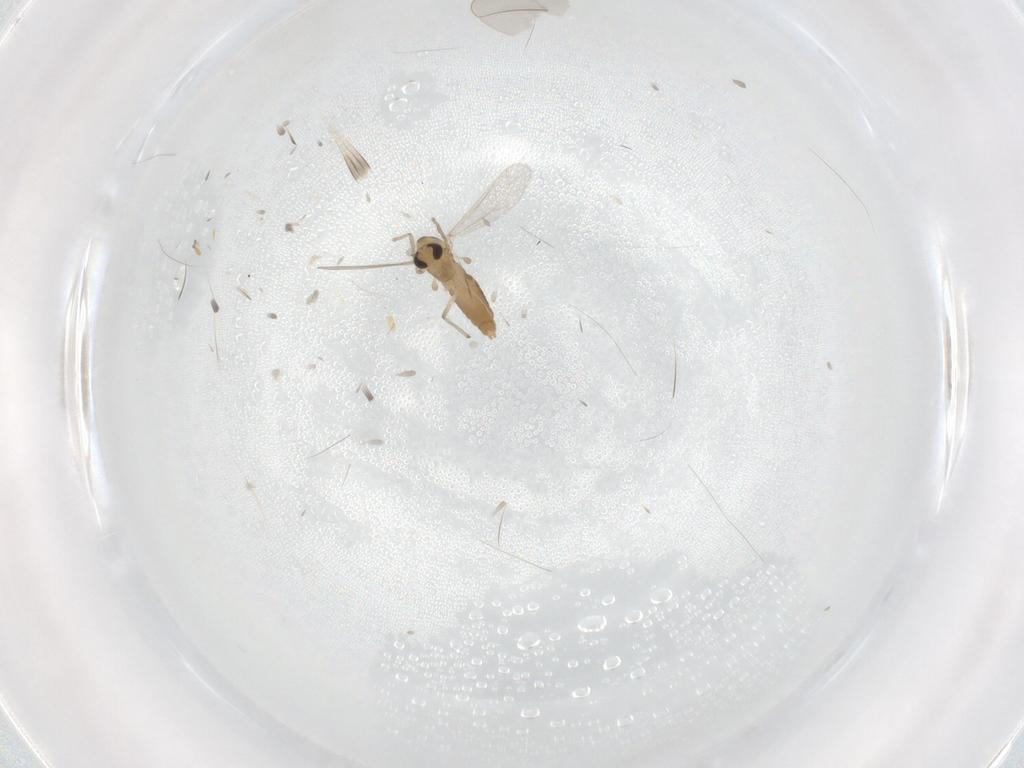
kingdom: Animalia
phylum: Arthropoda
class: Insecta
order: Diptera
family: Chironomidae
